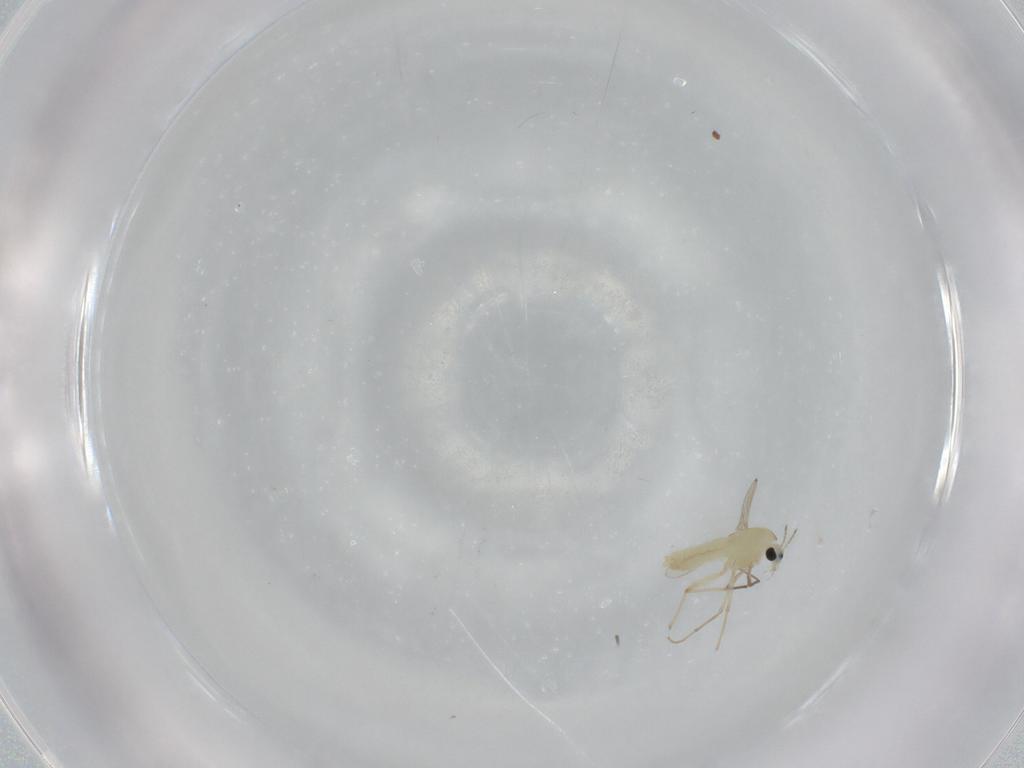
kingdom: Animalia
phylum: Arthropoda
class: Insecta
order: Diptera
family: Chironomidae
